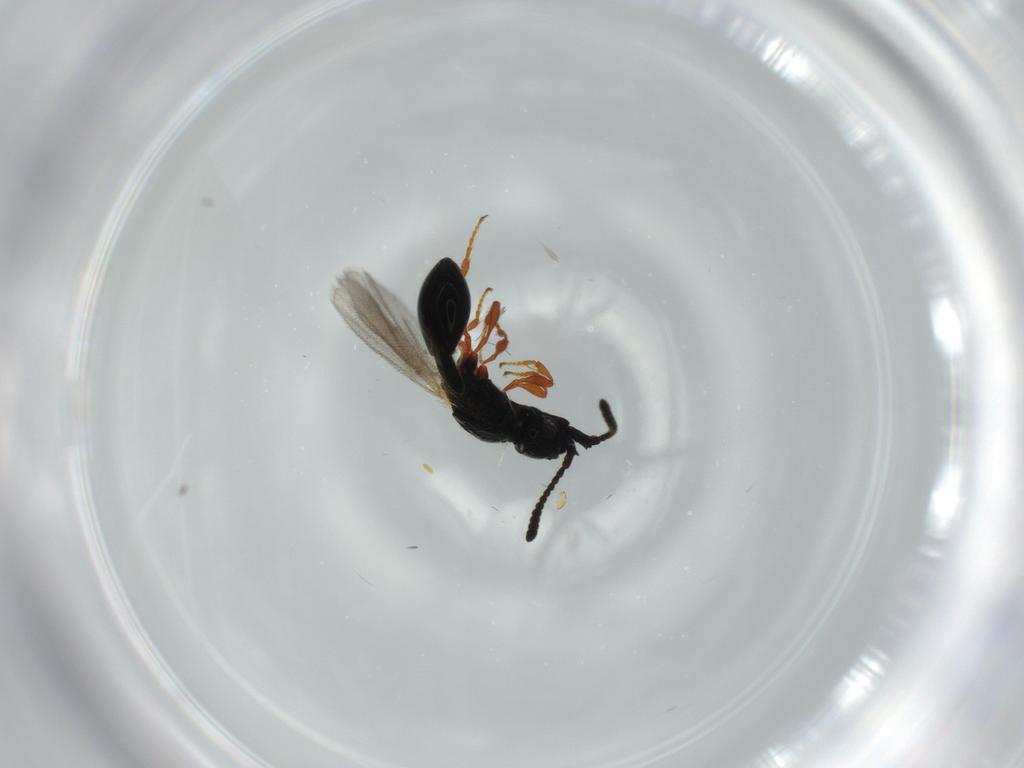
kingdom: Animalia
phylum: Arthropoda
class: Insecta
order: Hymenoptera
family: Diapriidae
